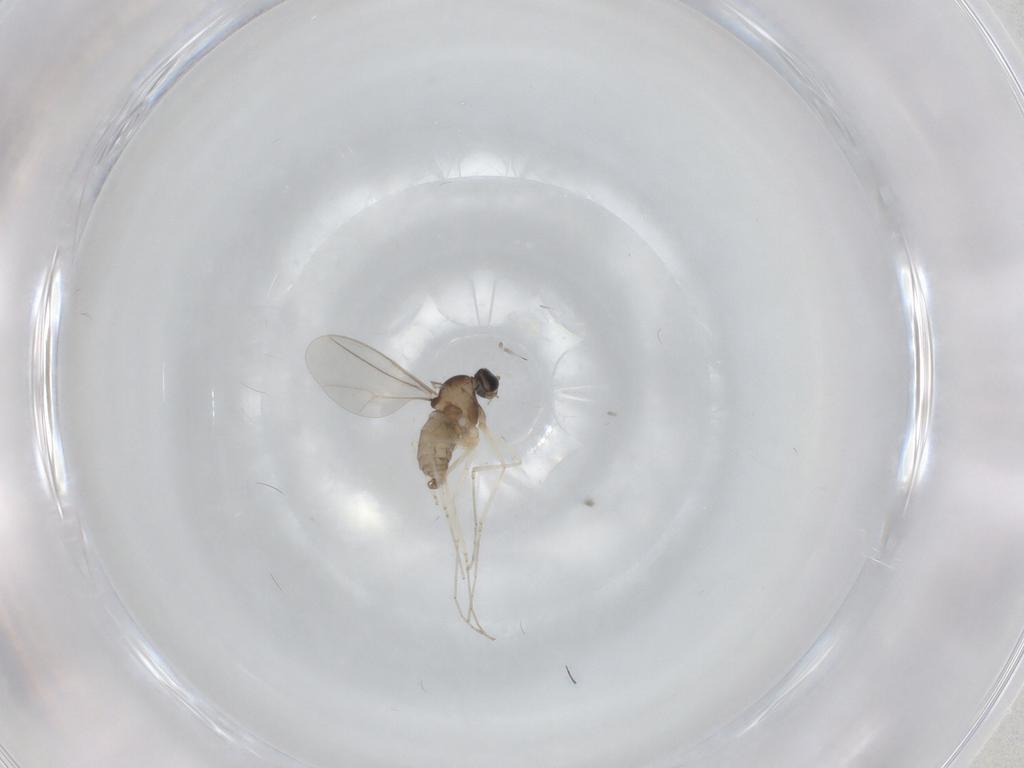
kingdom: Animalia
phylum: Arthropoda
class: Insecta
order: Diptera
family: Cecidomyiidae
